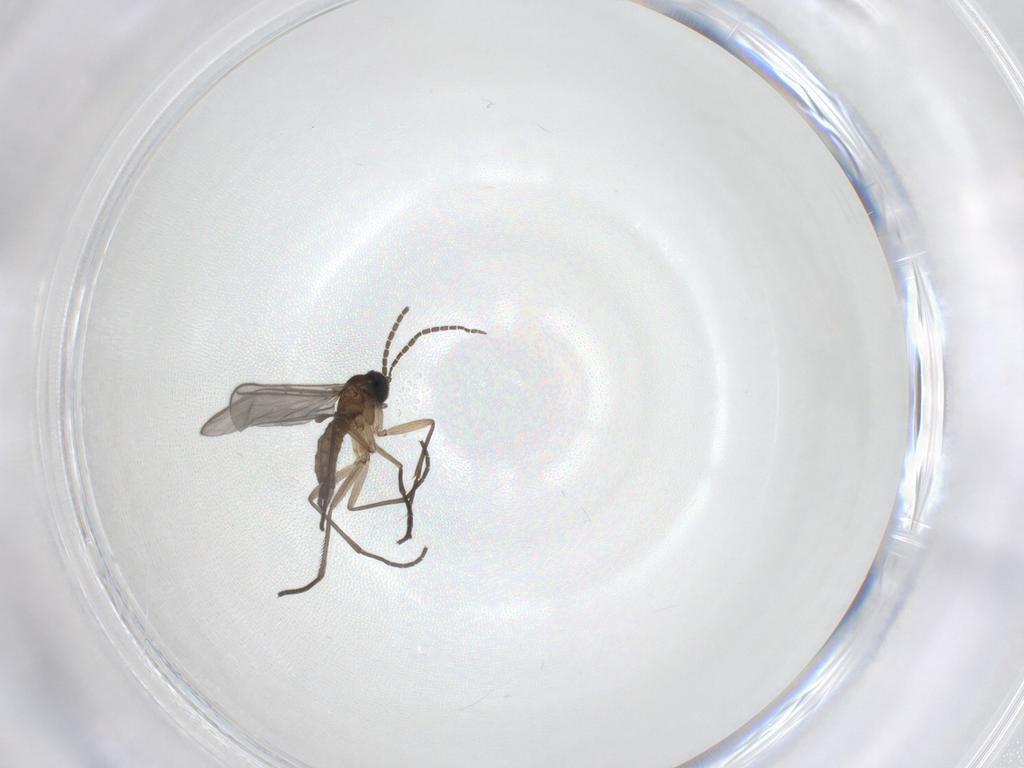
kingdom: Animalia
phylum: Arthropoda
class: Insecta
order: Diptera
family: Sciaridae
